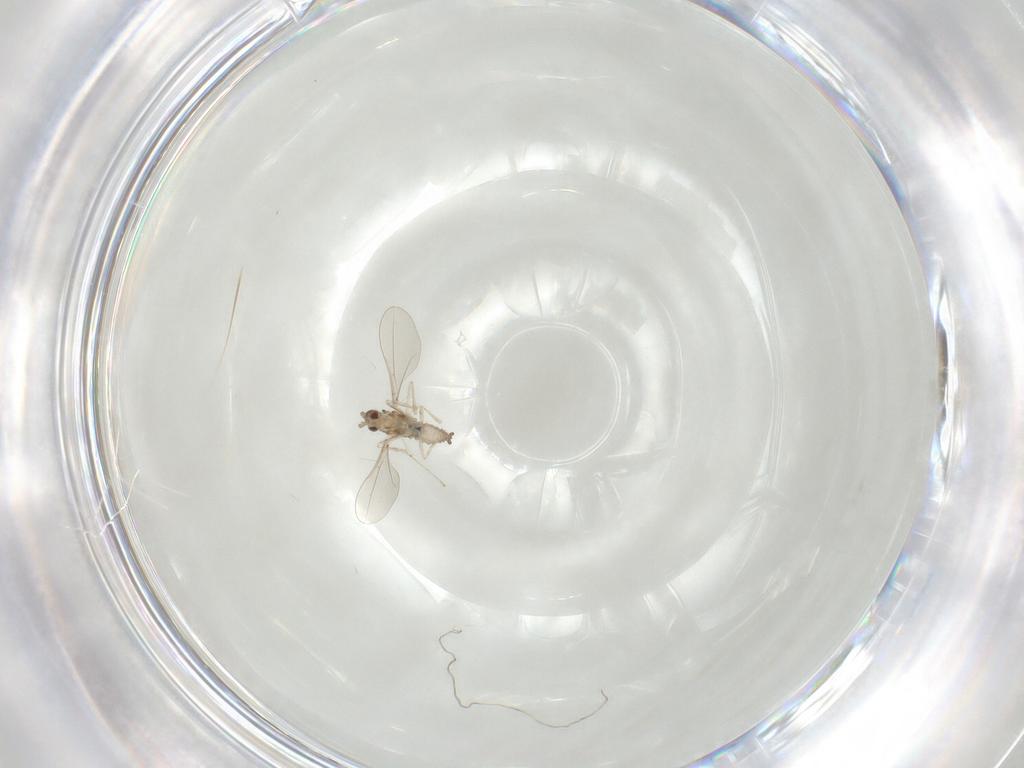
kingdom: Animalia
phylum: Arthropoda
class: Insecta
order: Diptera
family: Cecidomyiidae
